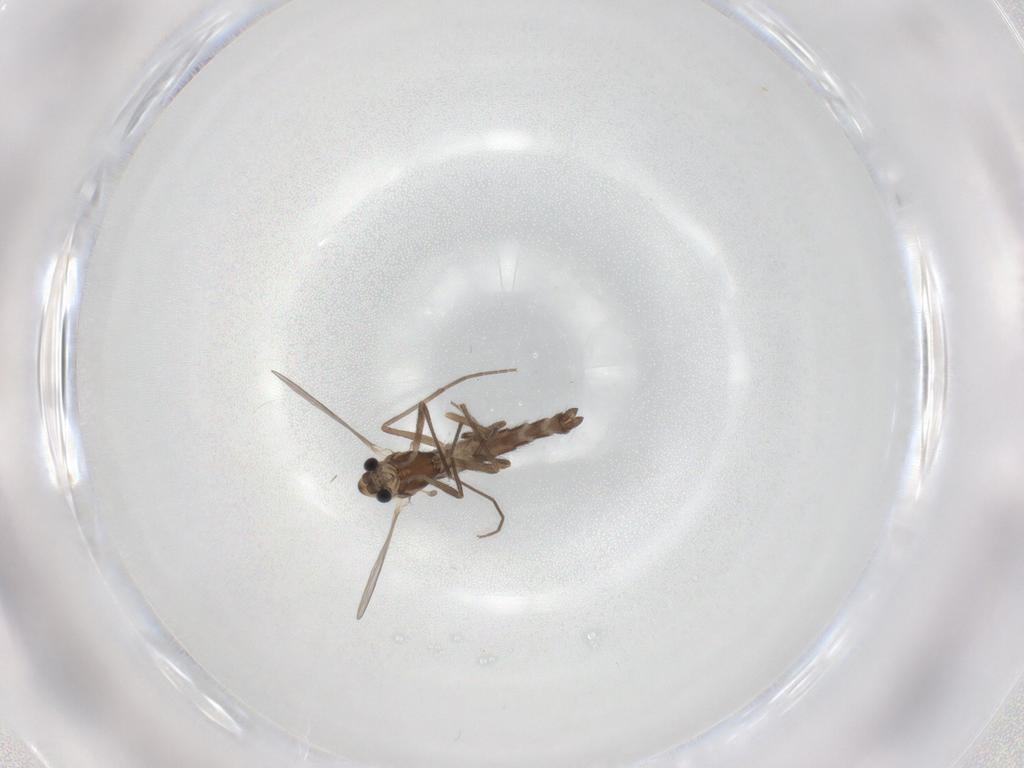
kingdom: Animalia
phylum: Arthropoda
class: Insecta
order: Diptera
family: Chironomidae
